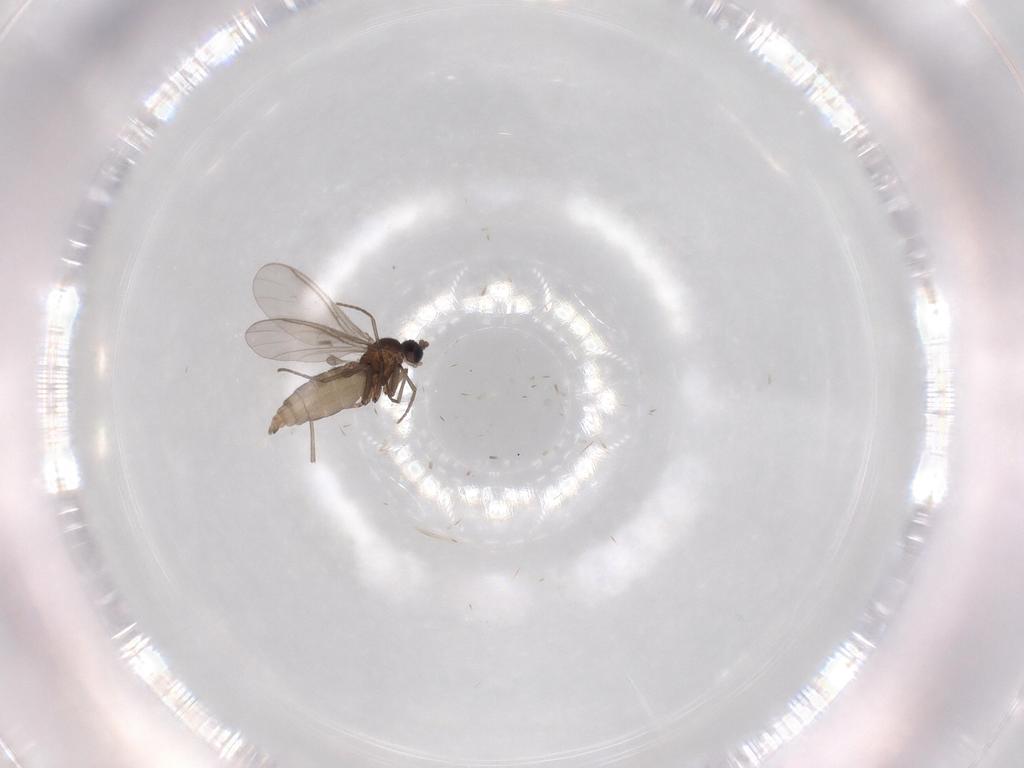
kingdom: Animalia
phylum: Arthropoda
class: Insecta
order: Diptera
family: Sciaridae
